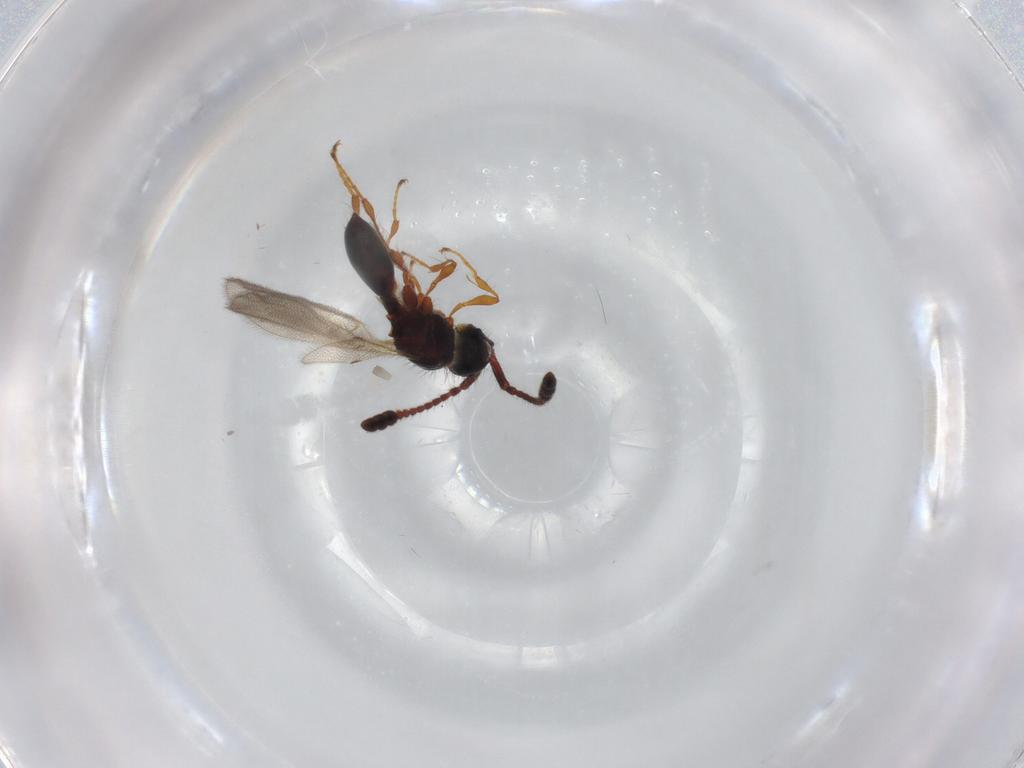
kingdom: Animalia
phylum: Arthropoda
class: Insecta
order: Hymenoptera
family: Diapriidae
